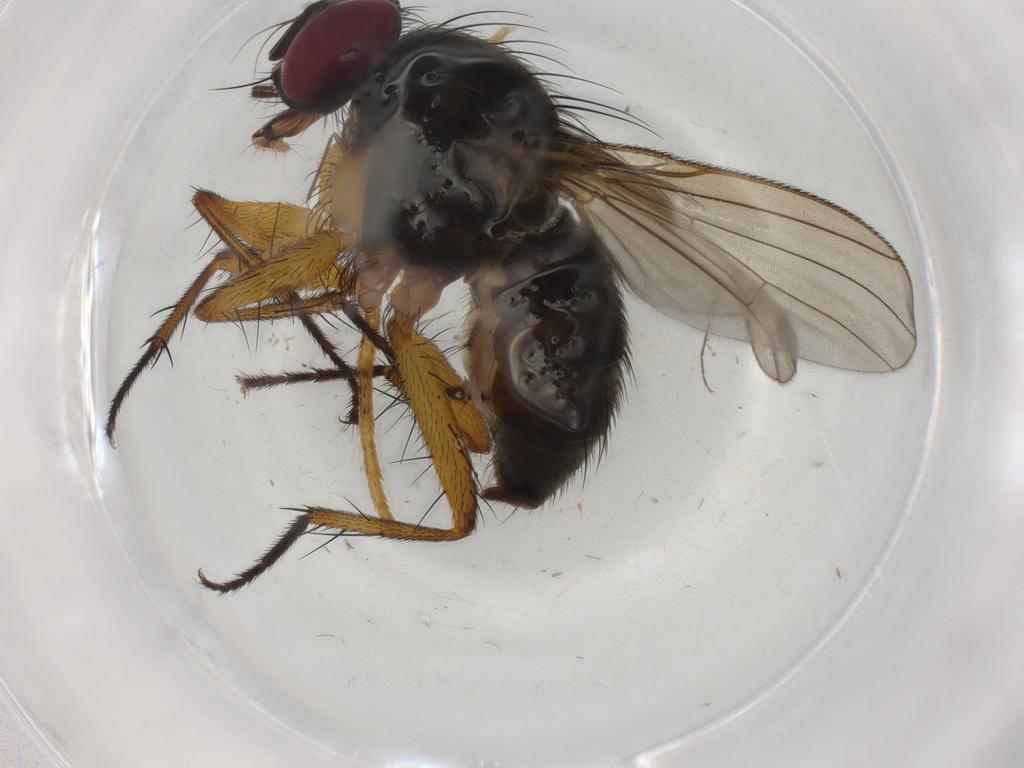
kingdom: Animalia
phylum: Arthropoda
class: Insecta
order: Diptera
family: Muscidae
